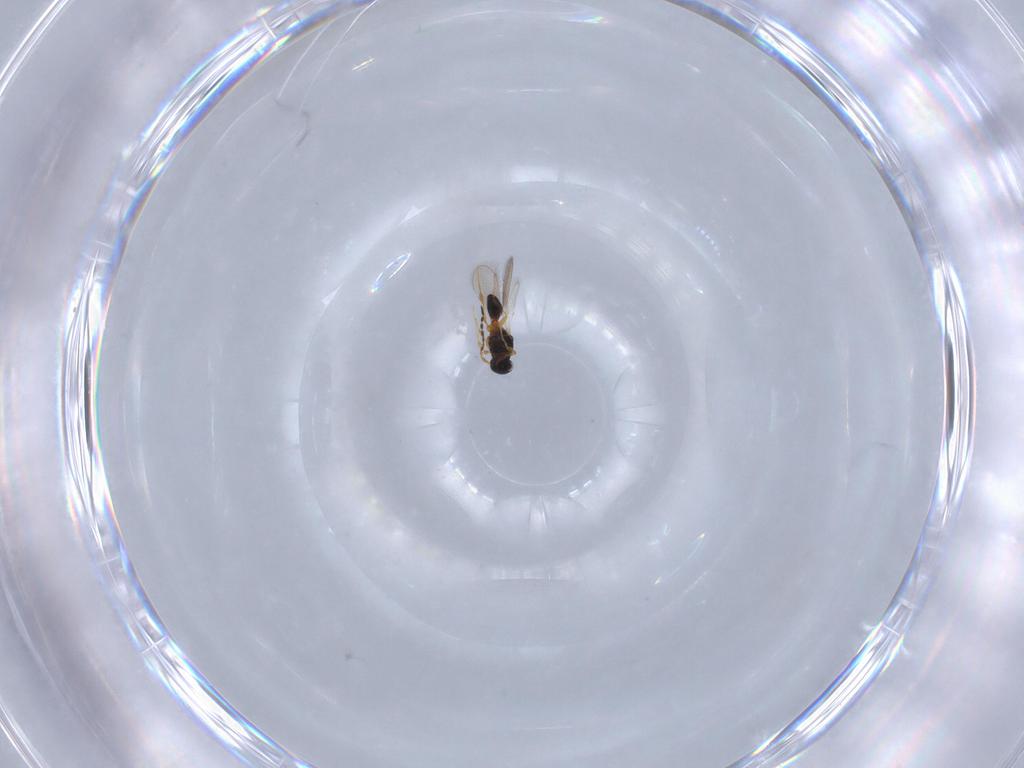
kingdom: Animalia
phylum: Arthropoda
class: Insecta
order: Hymenoptera
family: Platygastridae
